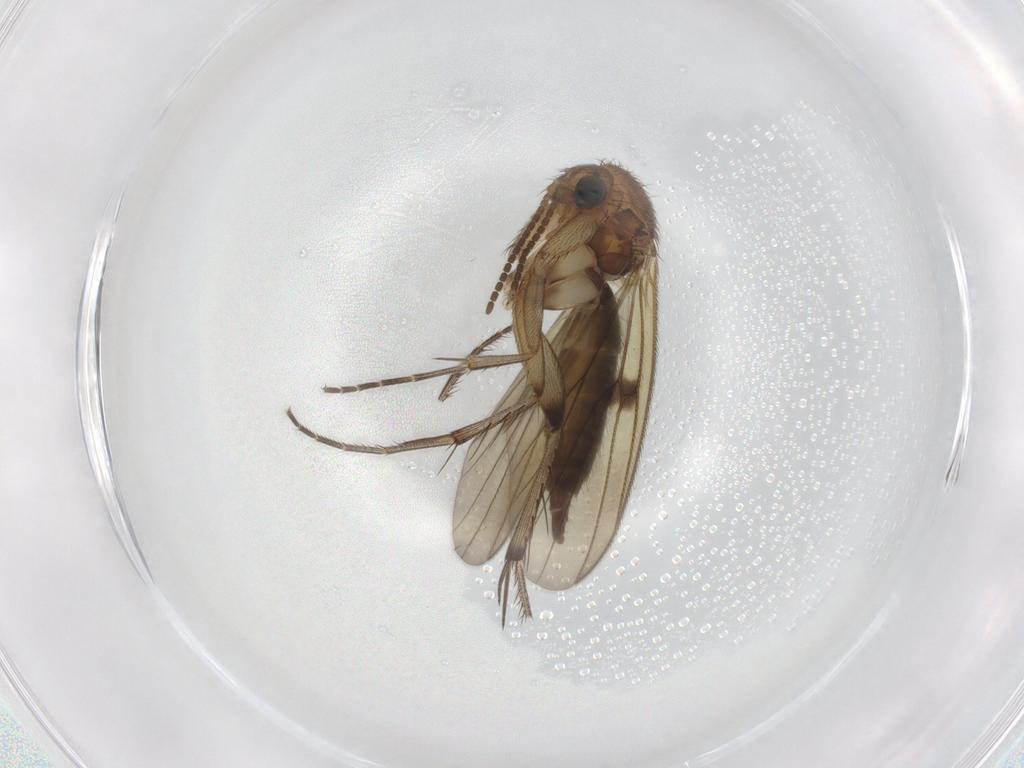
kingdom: Animalia
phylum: Arthropoda
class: Insecta
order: Diptera
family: Mycetophilidae
